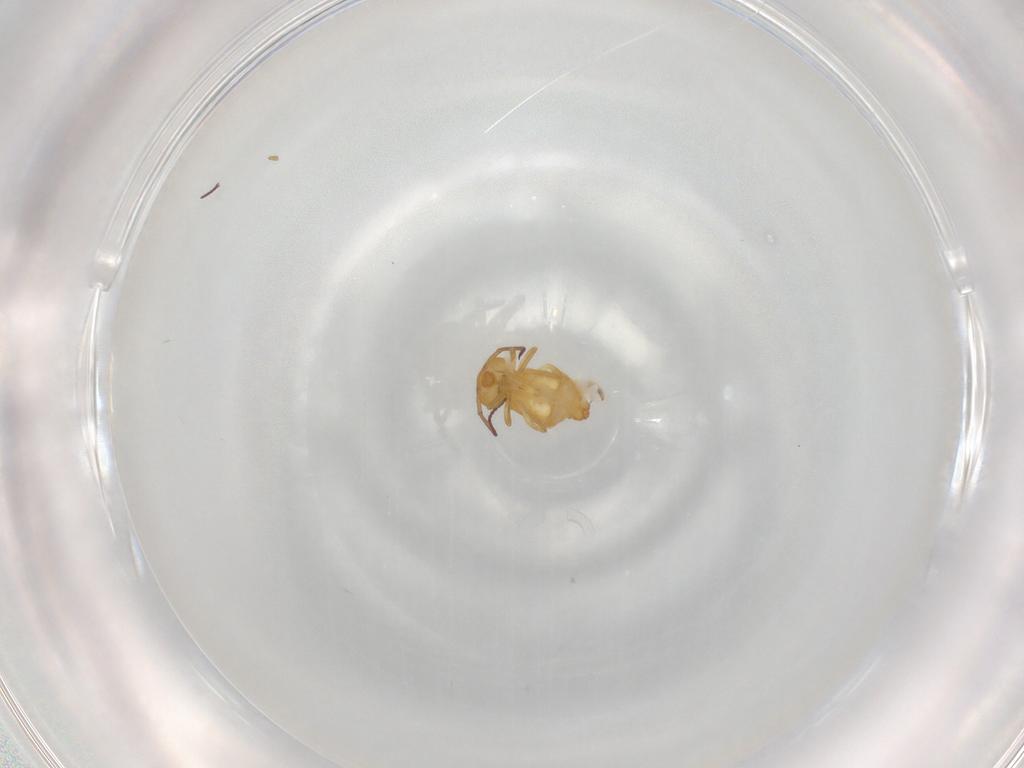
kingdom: Animalia
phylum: Arthropoda
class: Collembola
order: Symphypleona
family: Bourletiellidae
